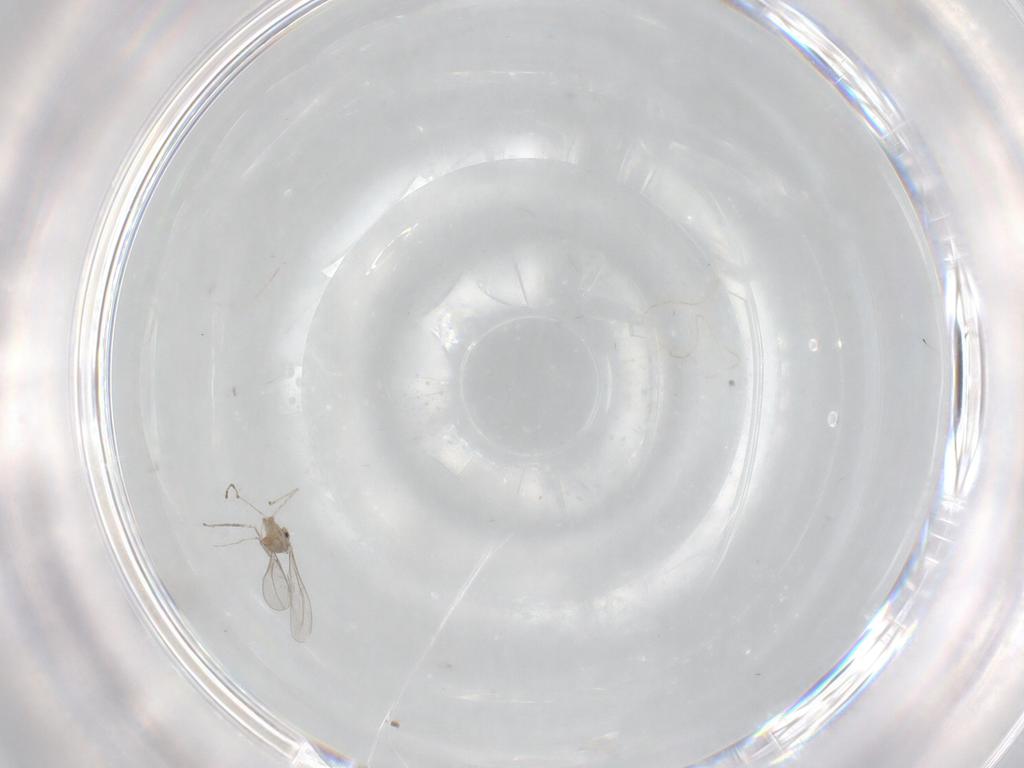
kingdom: Animalia
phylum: Arthropoda
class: Insecta
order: Diptera
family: Cecidomyiidae
